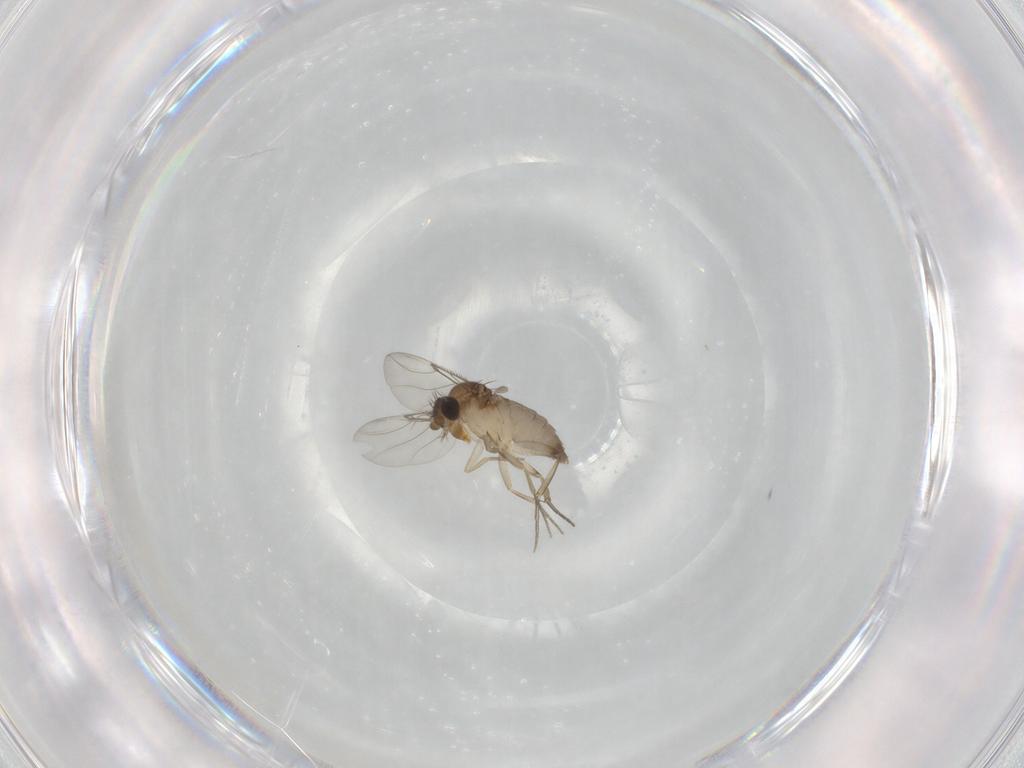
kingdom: Animalia
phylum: Arthropoda
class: Insecta
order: Diptera
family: Phoridae
